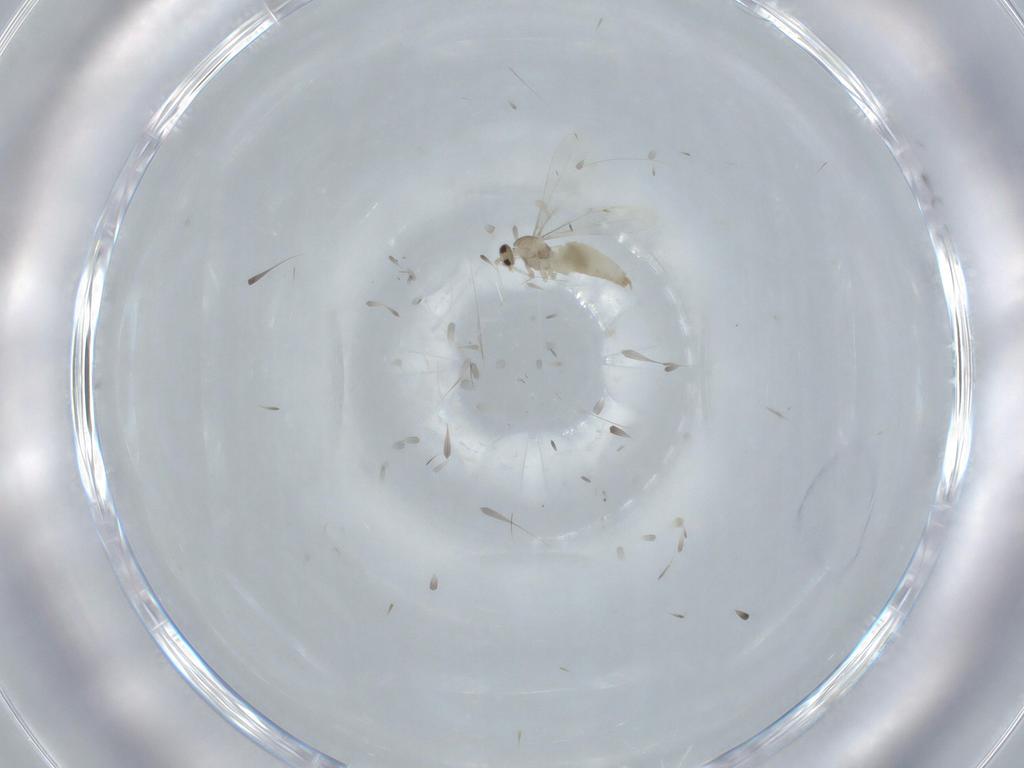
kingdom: Animalia
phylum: Arthropoda
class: Insecta
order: Diptera
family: Cecidomyiidae
